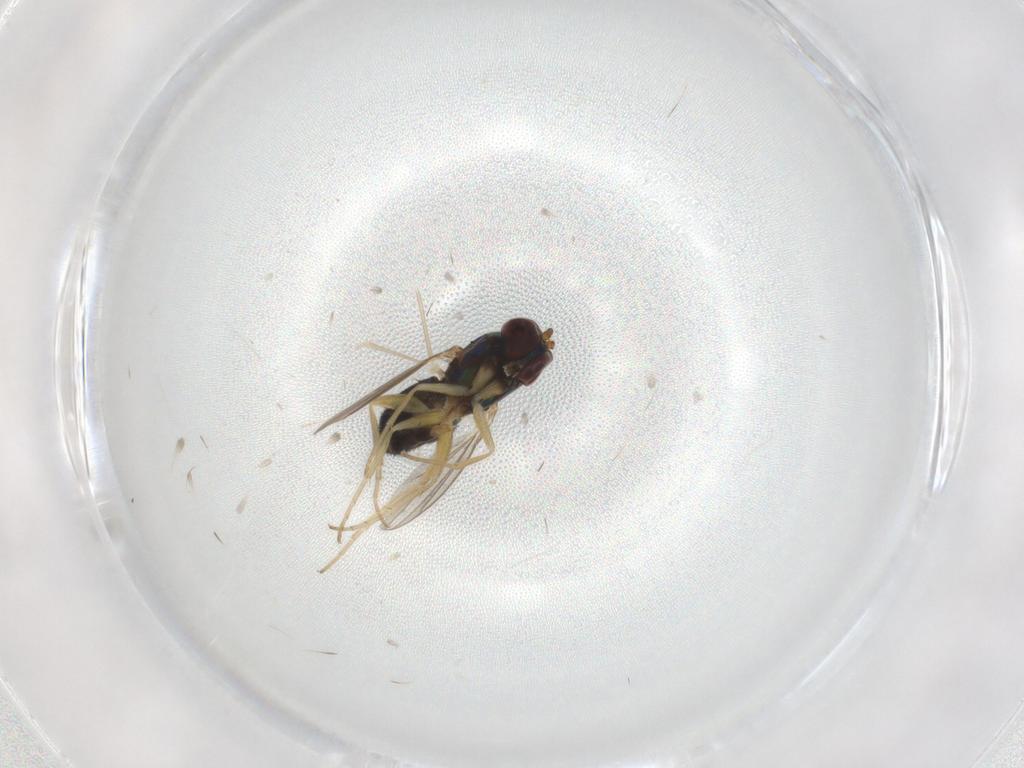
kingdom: Animalia
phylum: Arthropoda
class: Insecta
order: Diptera
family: Dolichopodidae
